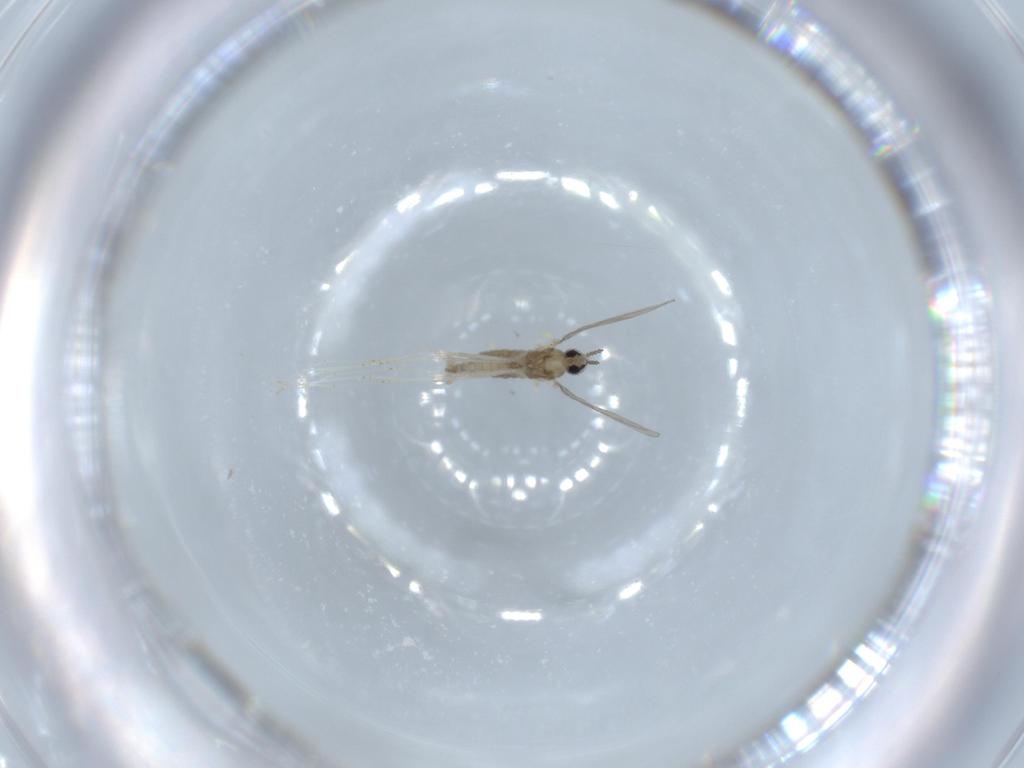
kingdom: Animalia
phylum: Arthropoda
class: Insecta
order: Diptera
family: Cecidomyiidae
